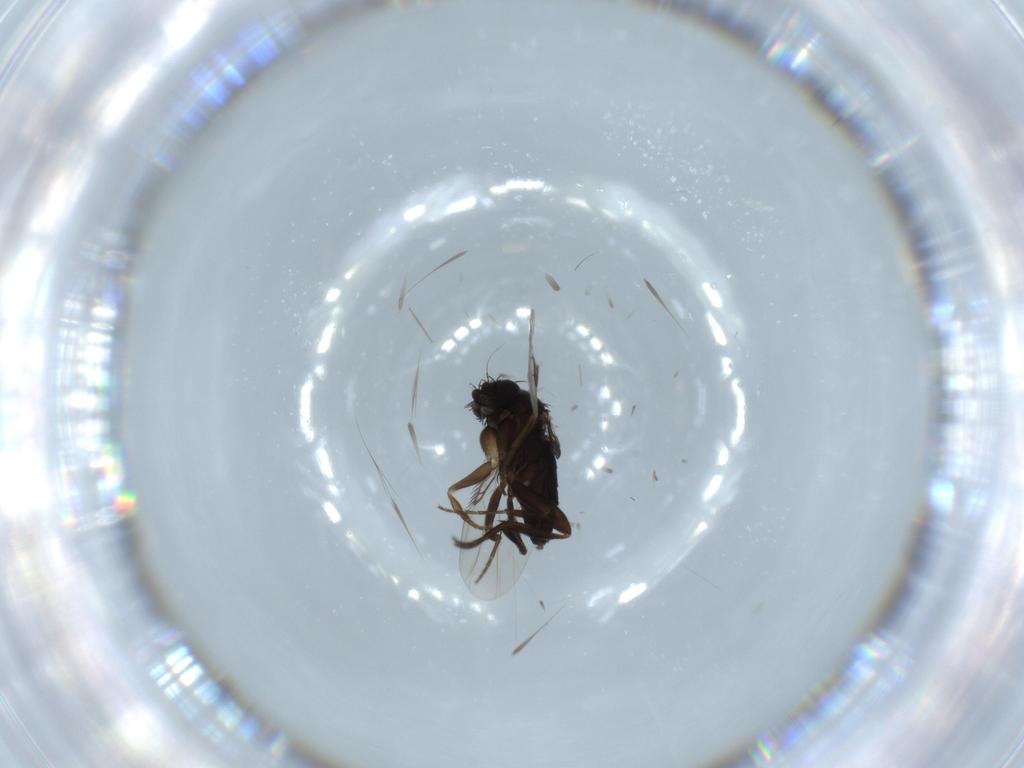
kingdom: Animalia
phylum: Arthropoda
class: Insecta
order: Diptera
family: Phoridae
